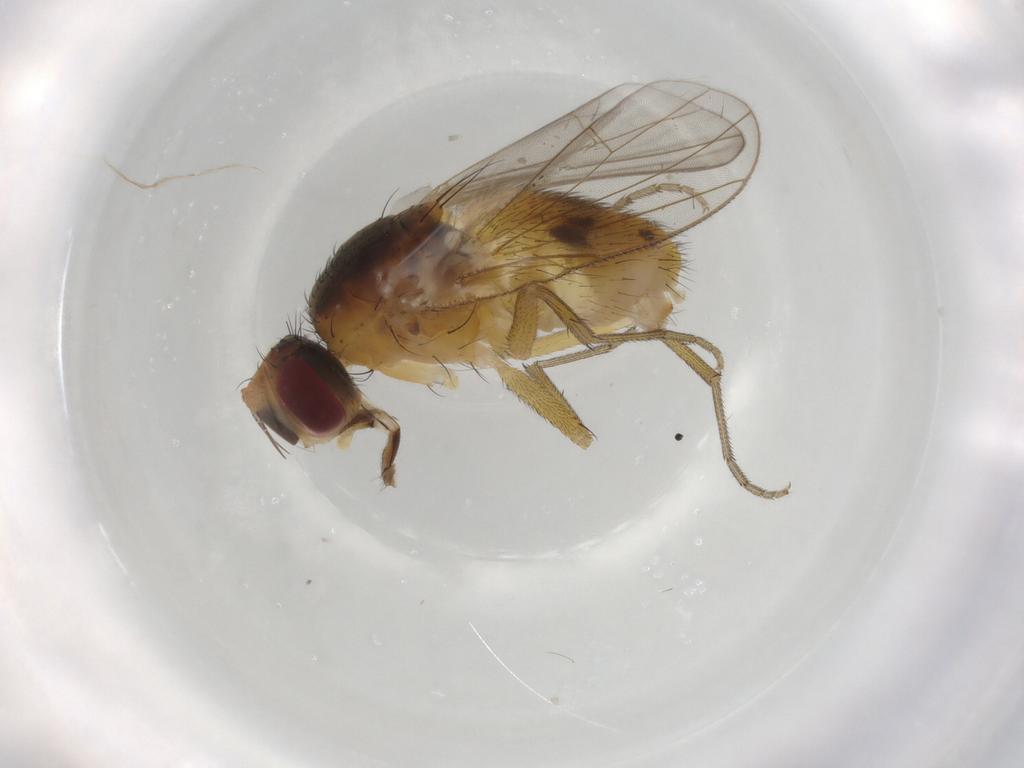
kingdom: Animalia
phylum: Arthropoda
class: Insecta
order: Diptera
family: Muscidae
